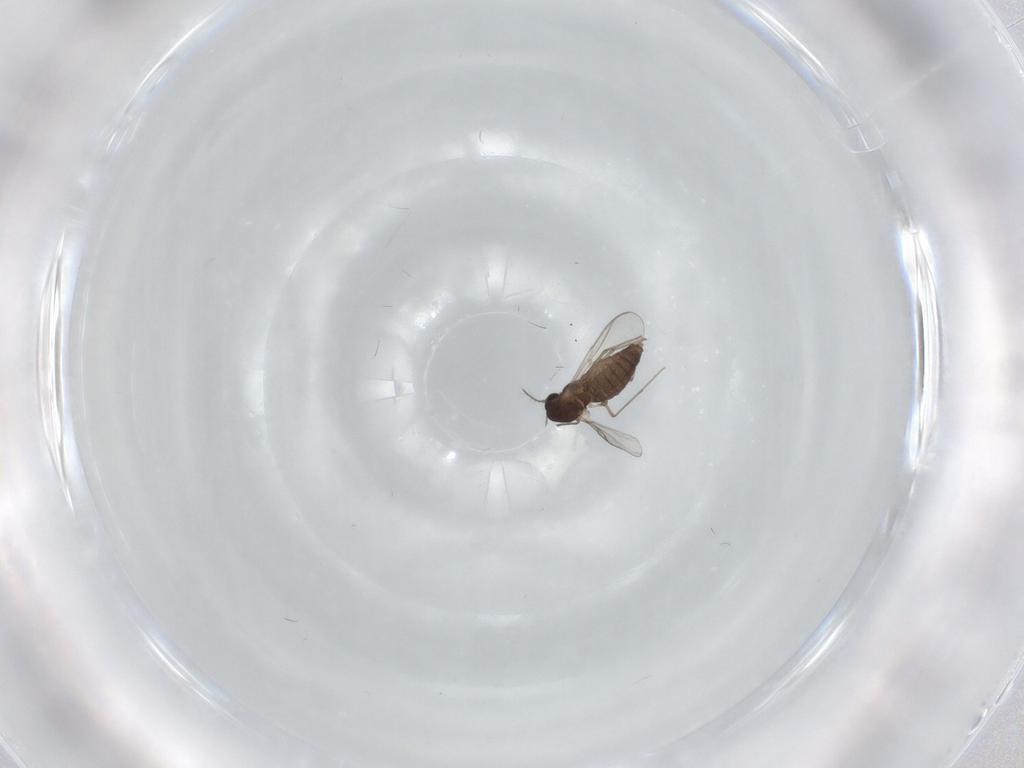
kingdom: Animalia
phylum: Arthropoda
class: Insecta
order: Diptera
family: Chironomidae
